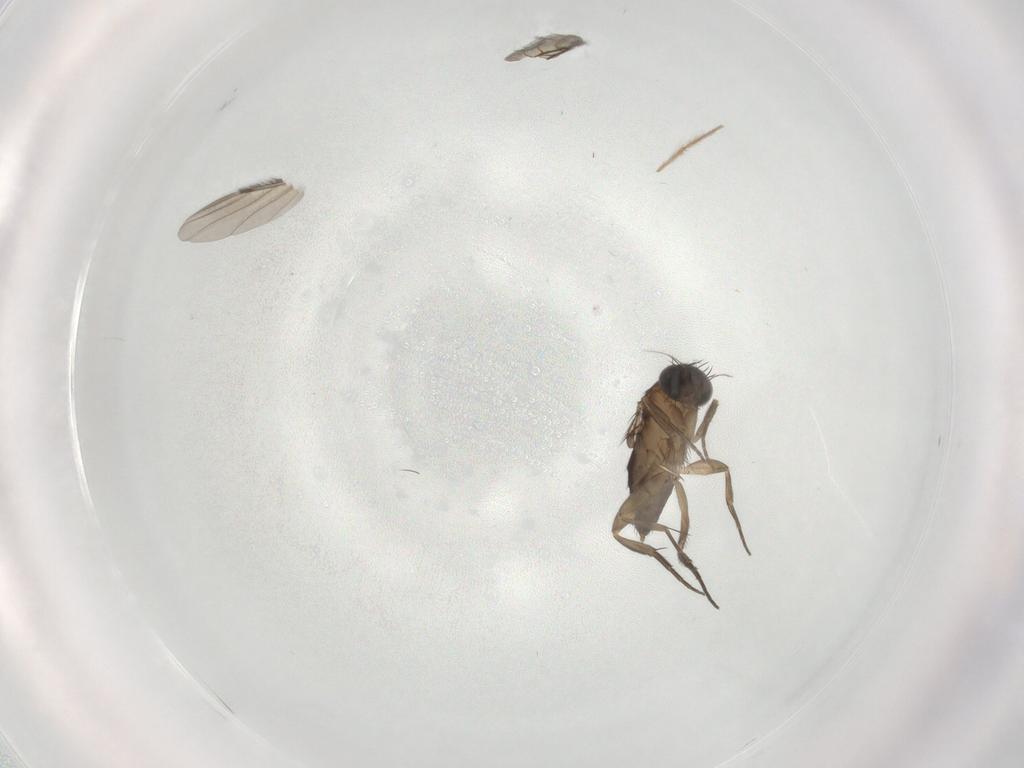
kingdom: Animalia
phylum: Arthropoda
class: Insecta
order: Diptera
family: Phoridae
